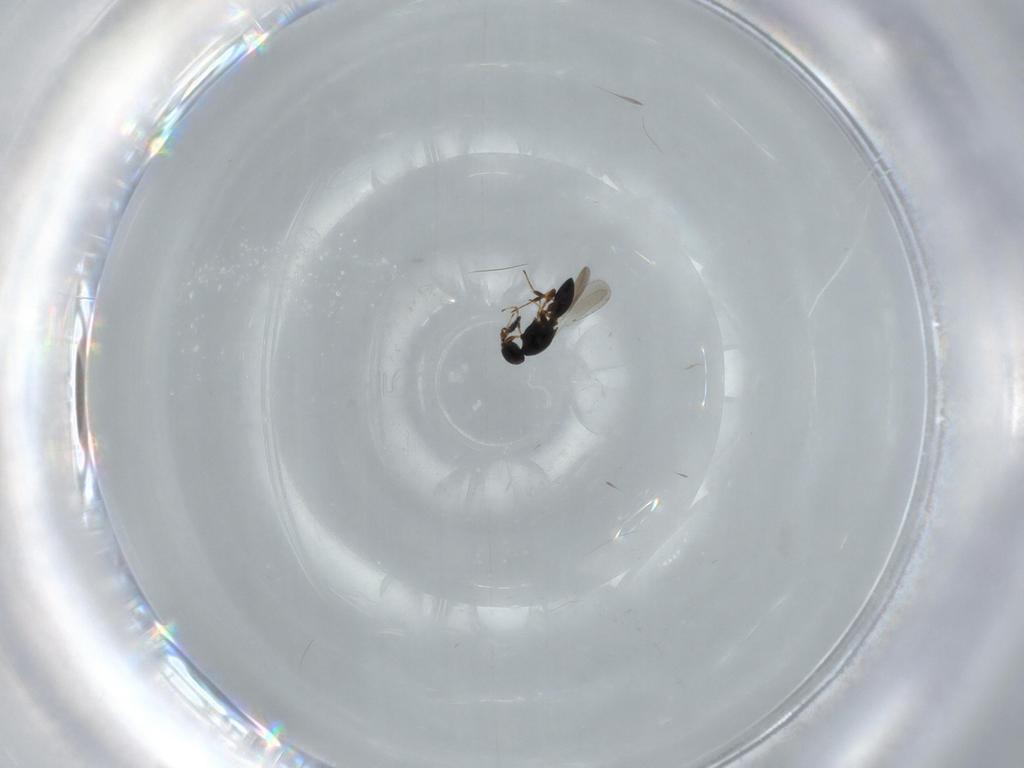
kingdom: Animalia
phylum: Arthropoda
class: Insecta
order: Hymenoptera
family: Platygastridae
